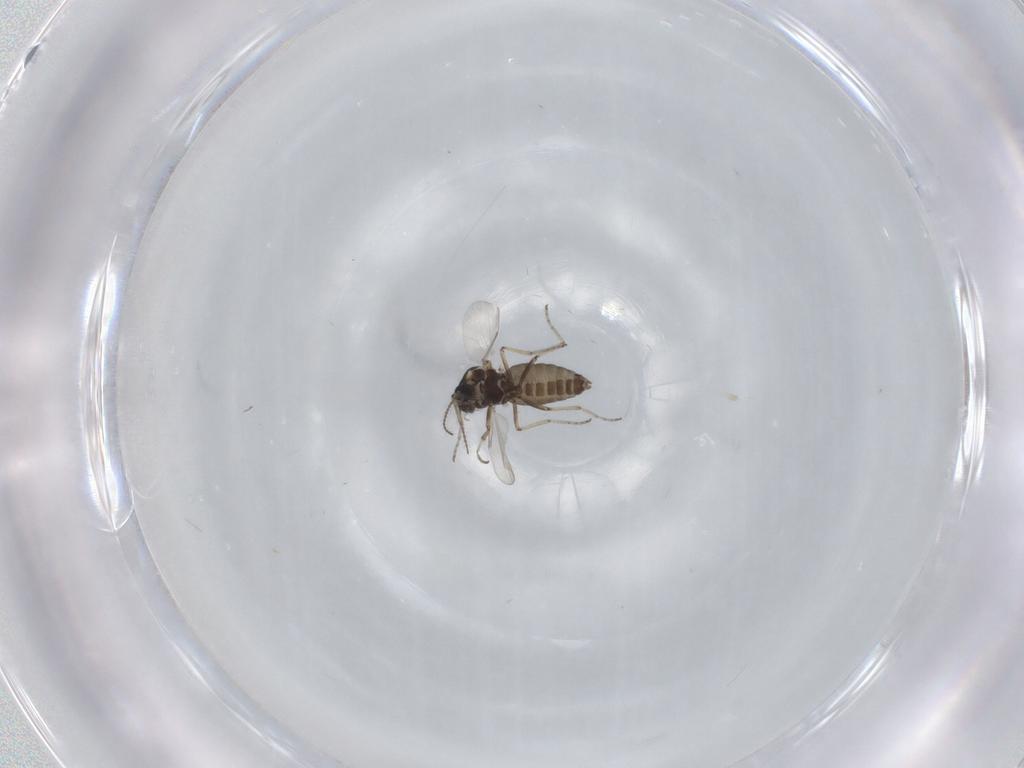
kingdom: Animalia
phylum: Arthropoda
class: Insecta
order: Diptera
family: Ceratopogonidae
